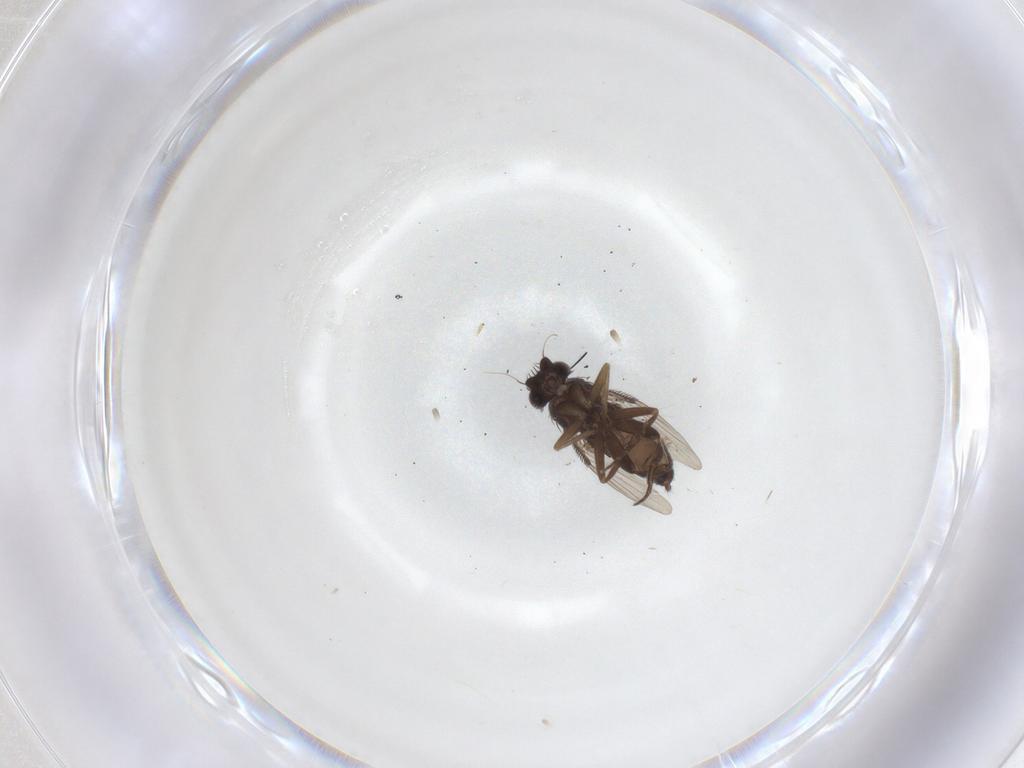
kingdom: Animalia
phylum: Arthropoda
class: Insecta
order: Diptera
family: Phoridae
